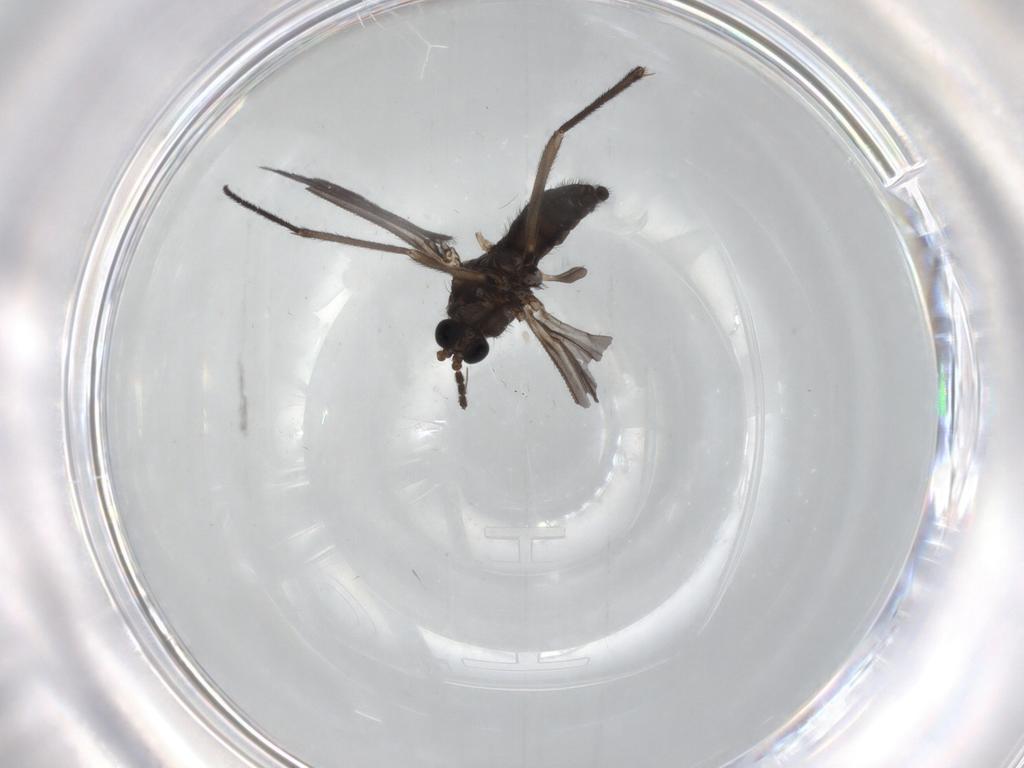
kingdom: Animalia
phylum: Arthropoda
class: Insecta
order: Diptera
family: Sciaridae
